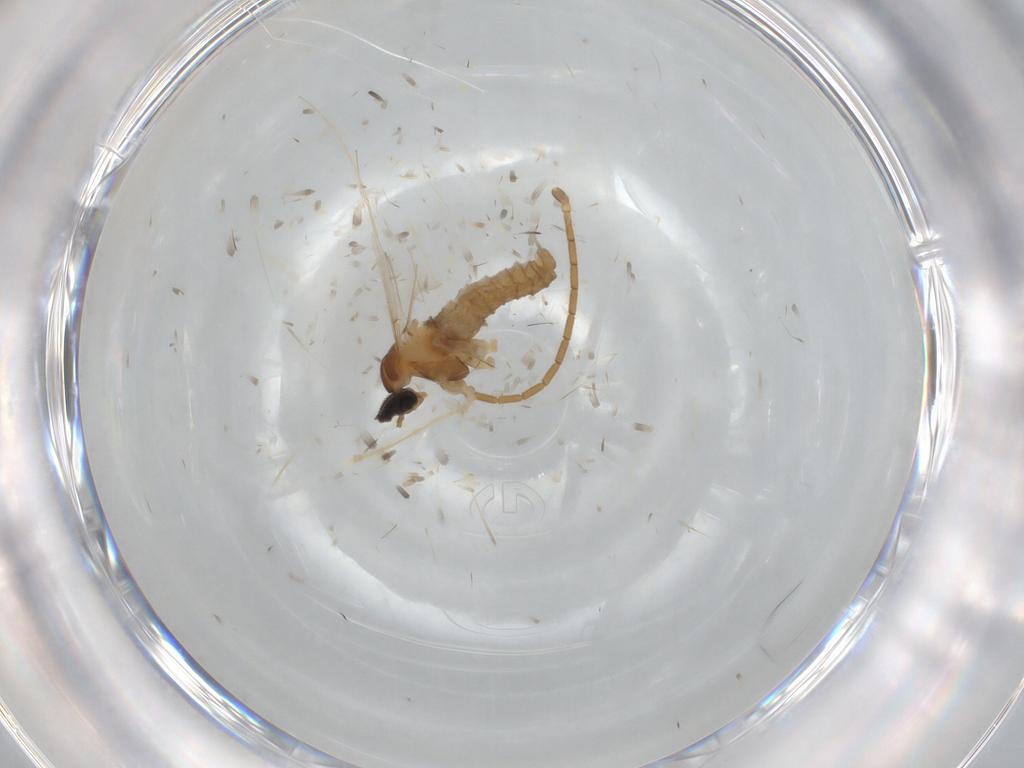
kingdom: Animalia
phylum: Arthropoda
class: Insecta
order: Diptera
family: Cecidomyiidae
